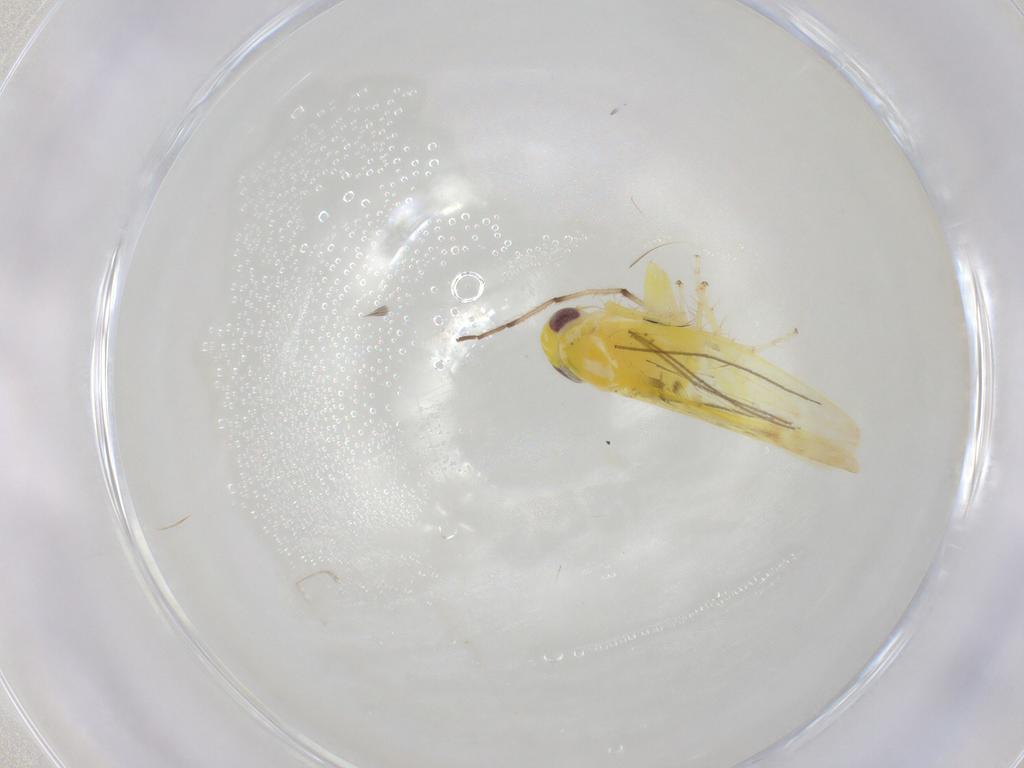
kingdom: Animalia
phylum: Arthropoda
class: Insecta
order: Hemiptera
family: Cicadellidae
